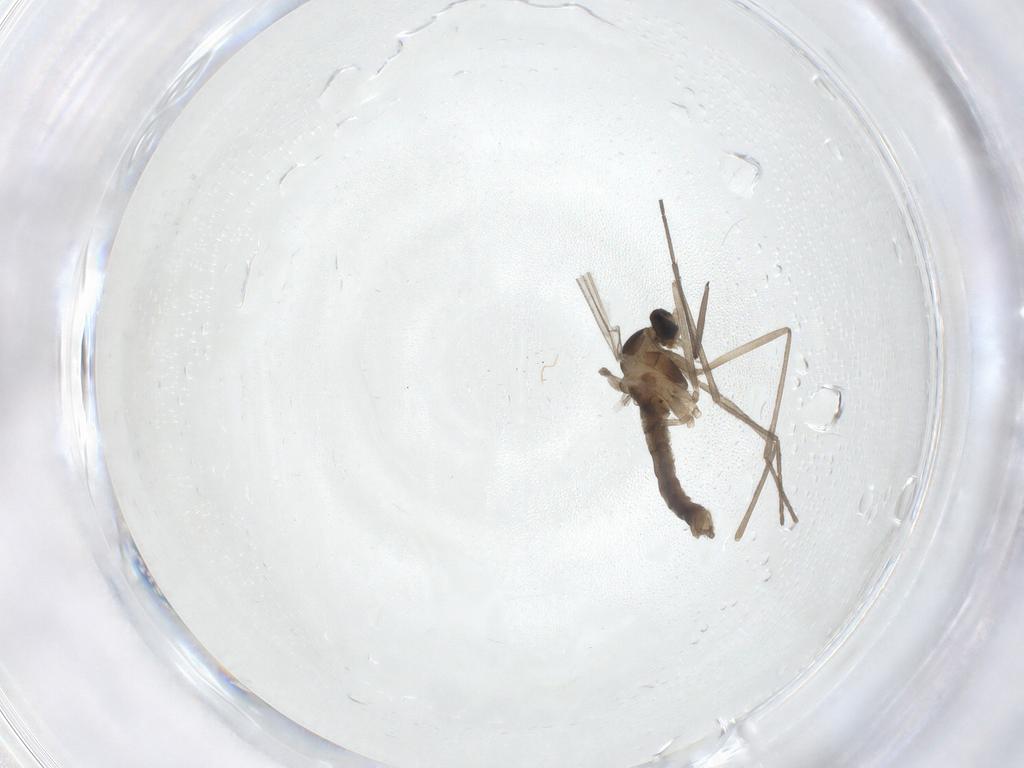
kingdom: Animalia
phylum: Arthropoda
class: Insecta
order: Diptera
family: Cecidomyiidae
